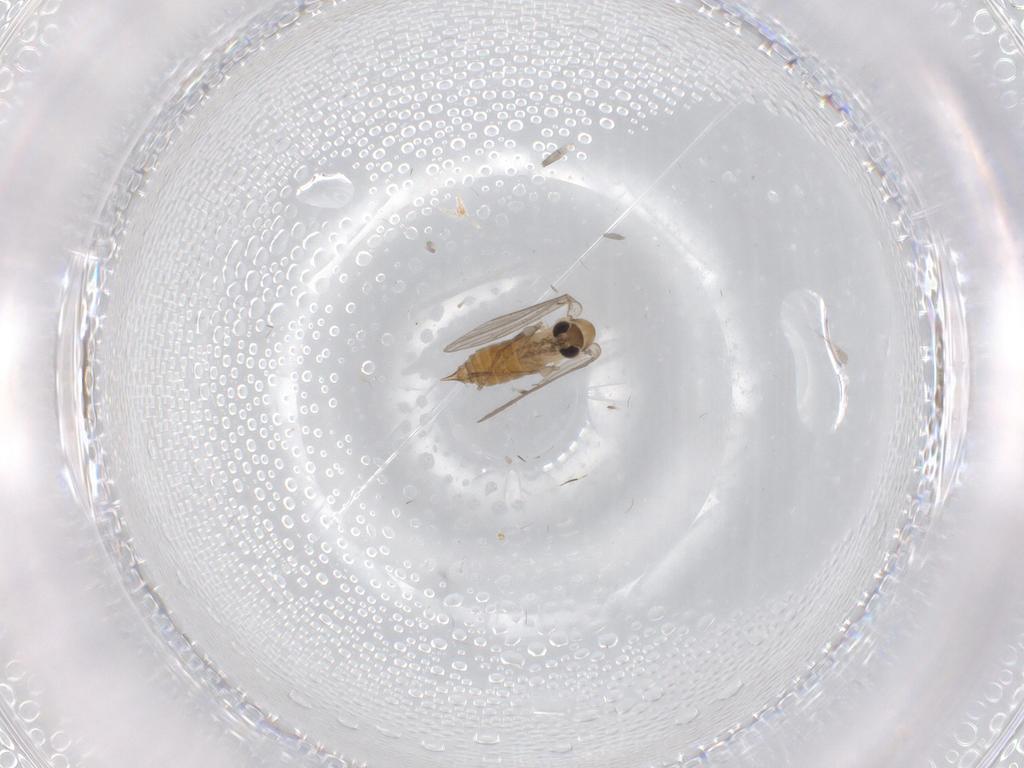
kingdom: Animalia
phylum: Arthropoda
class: Insecta
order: Diptera
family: Psychodidae
